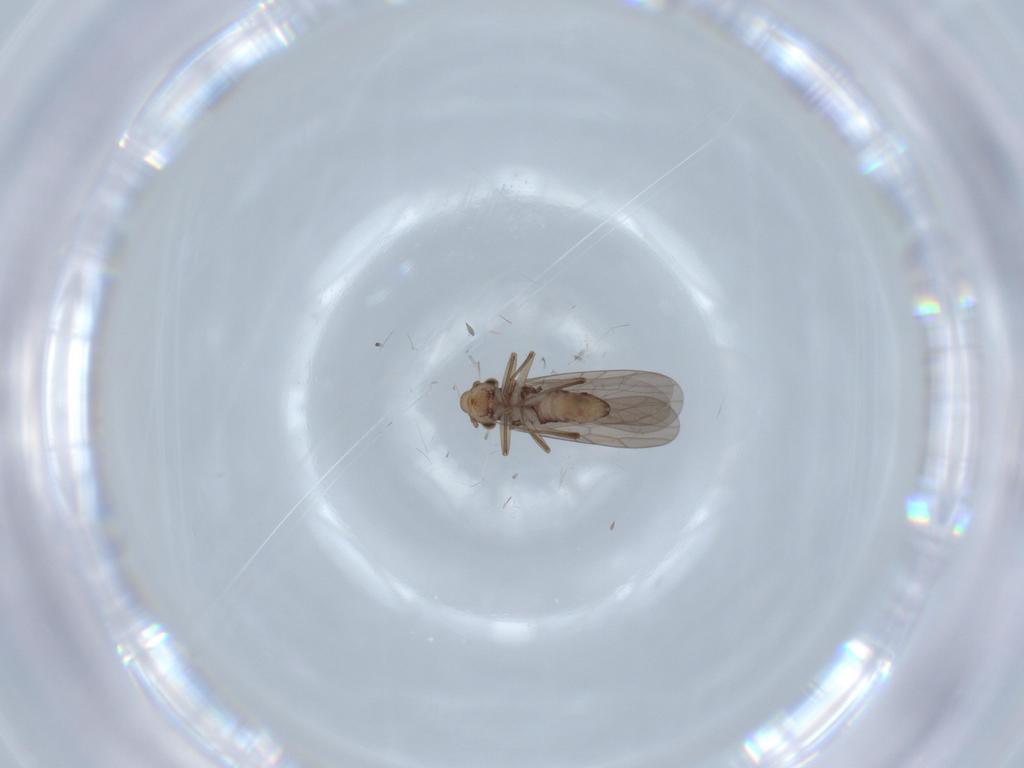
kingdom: Animalia
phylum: Arthropoda
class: Insecta
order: Psocodea
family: Lepidopsocidae
